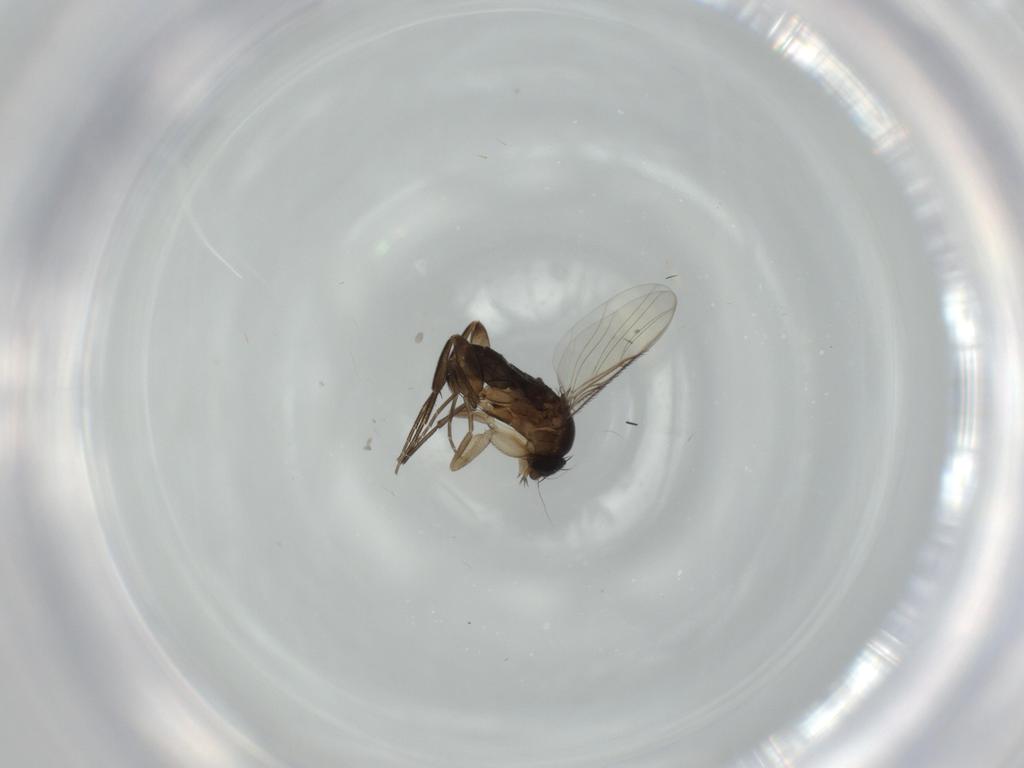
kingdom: Animalia
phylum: Arthropoda
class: Insecta
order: Diptera
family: Phoridae
